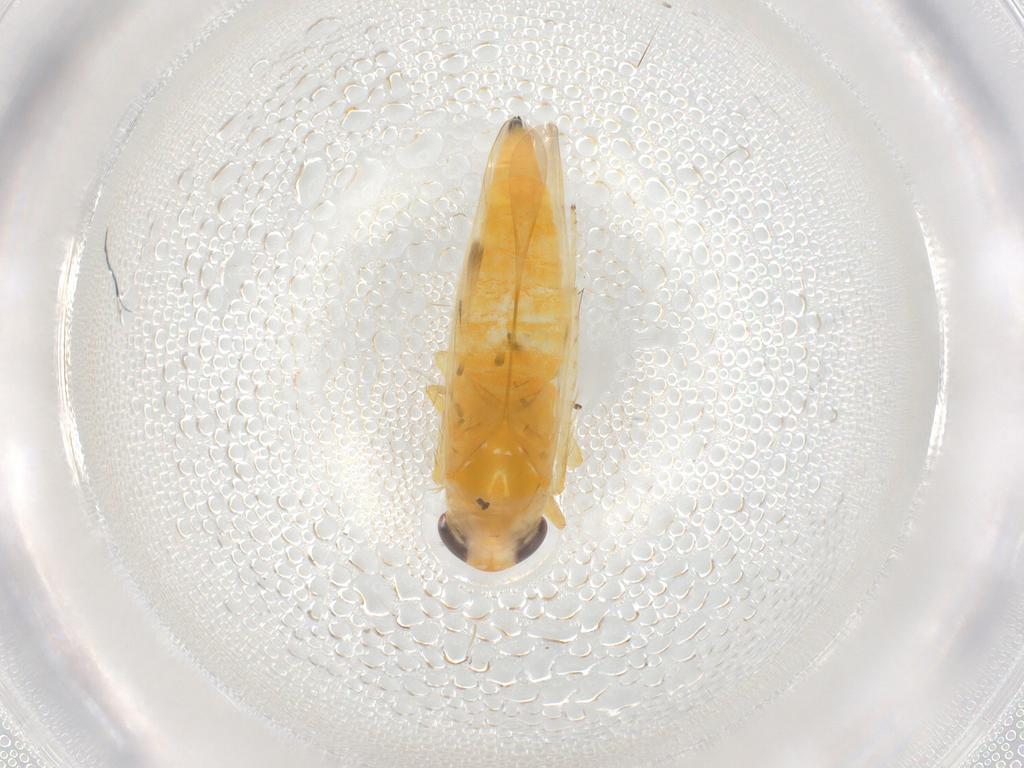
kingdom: Animalia
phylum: Arthropoda
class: Insecta
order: Hemiptera
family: Cicadellidae
